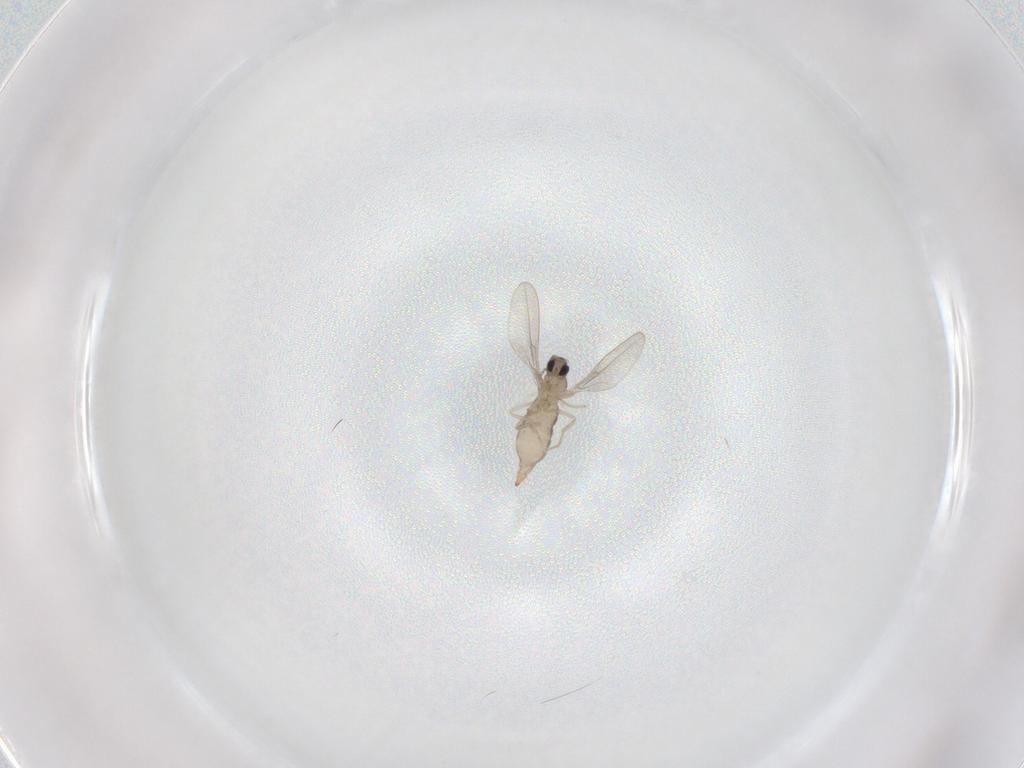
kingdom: Animalia
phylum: Arthropoda
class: Insecta
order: Diptera
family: Cecidomyiidae
